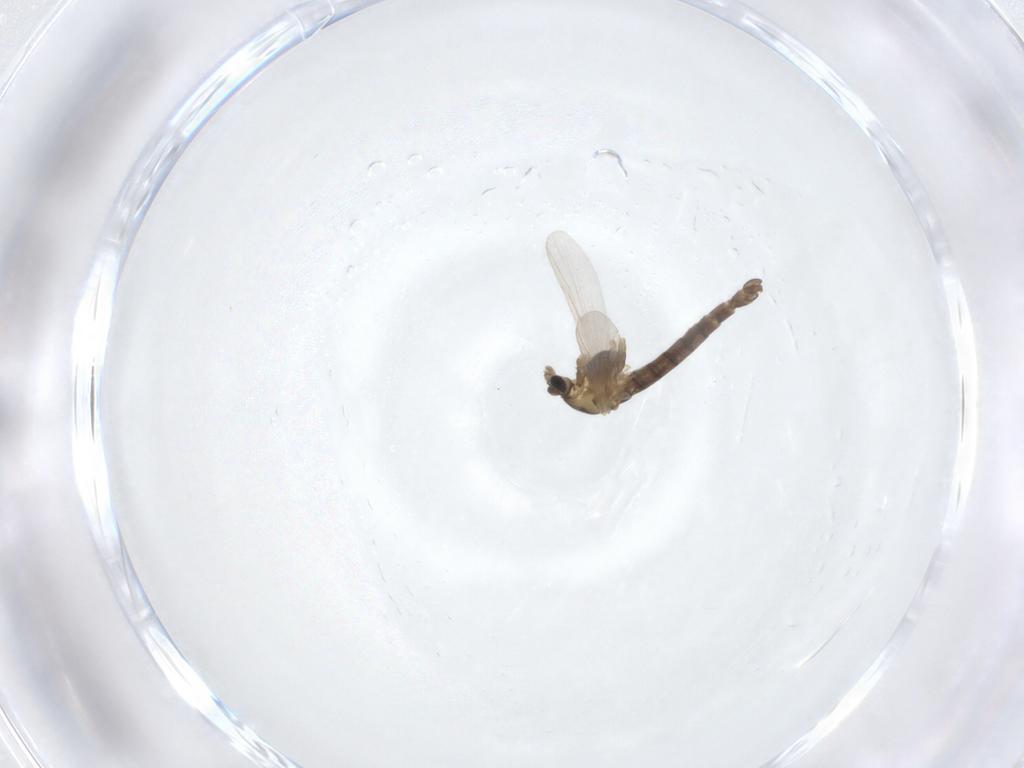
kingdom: Animalia
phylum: Arthropoda
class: Insecta
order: Diptera
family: Chironomidae
